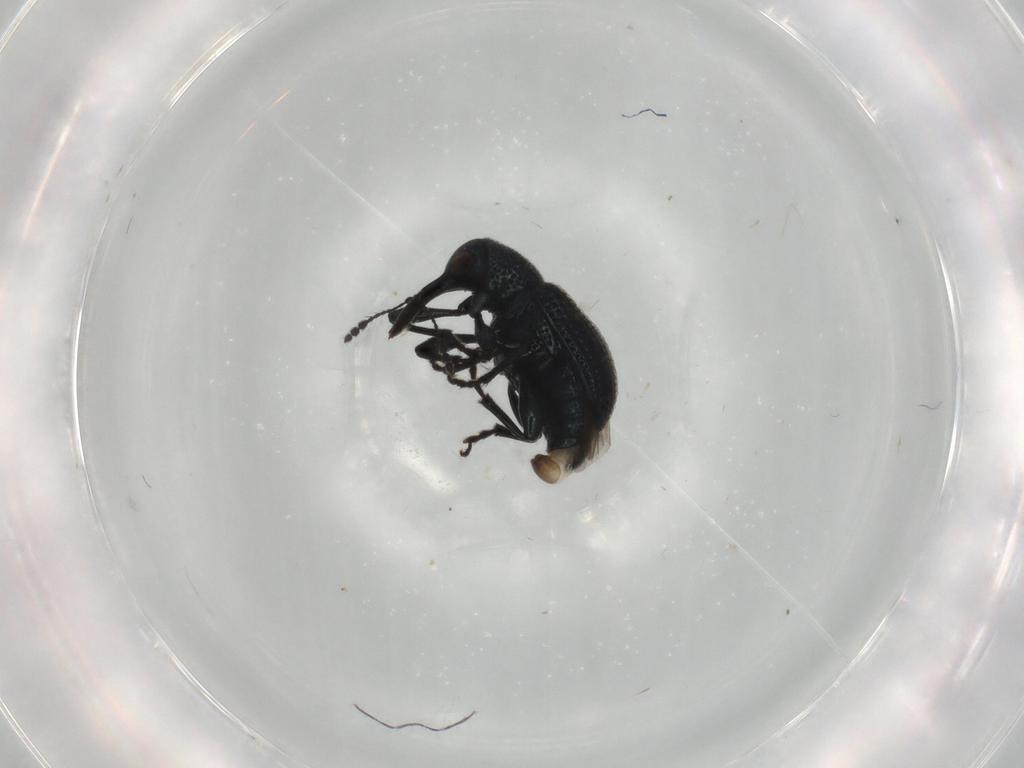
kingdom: Animalia
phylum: Arthropoda
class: Insecta
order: Coleoptera
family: Attelabidae
